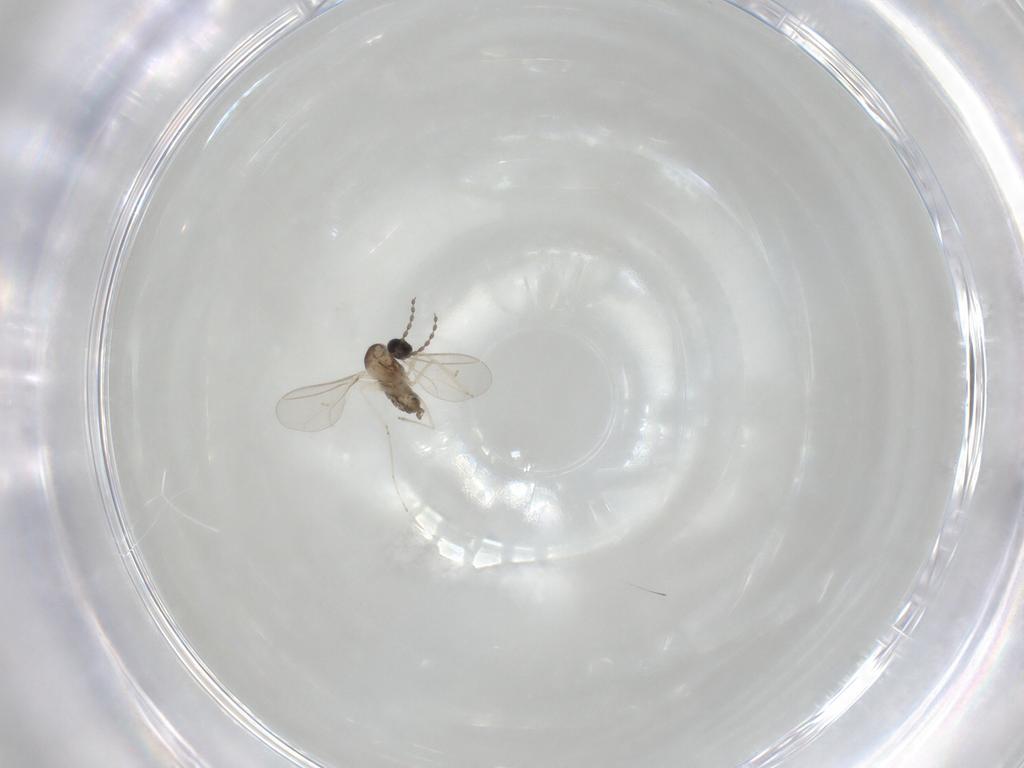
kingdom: Animalia
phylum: Arthropoda
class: Insecta
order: Diptera
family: Cecidomyiidae
